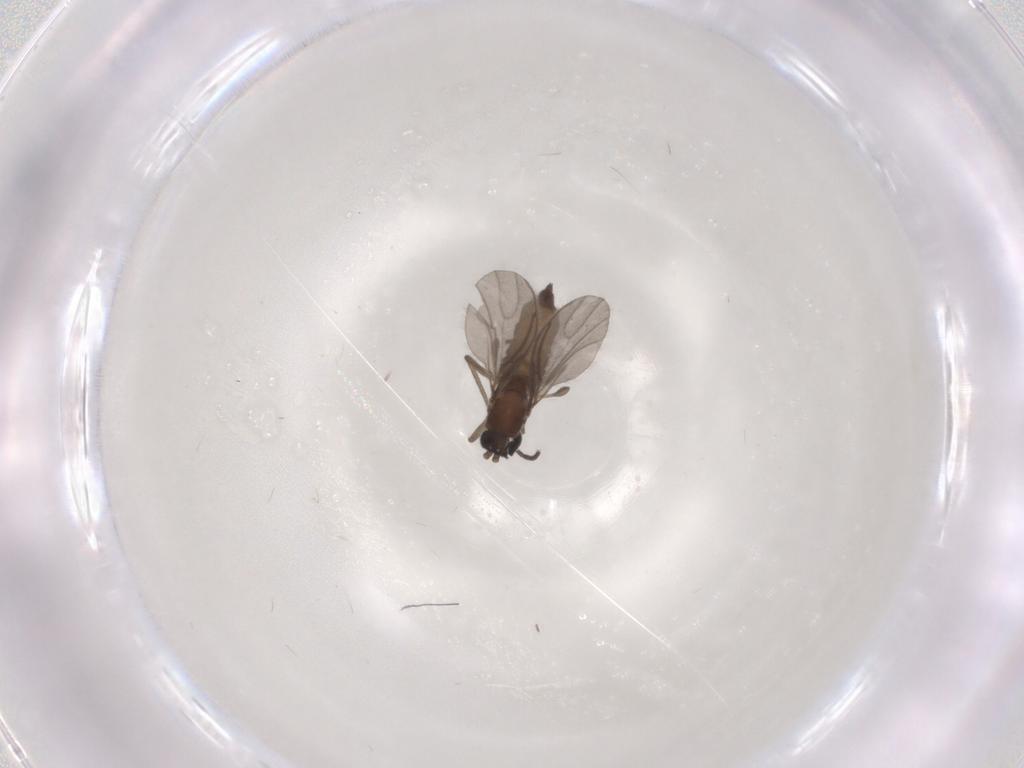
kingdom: Animalia
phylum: Arthropoda
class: Insecta
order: Diptera
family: Sciaridae
